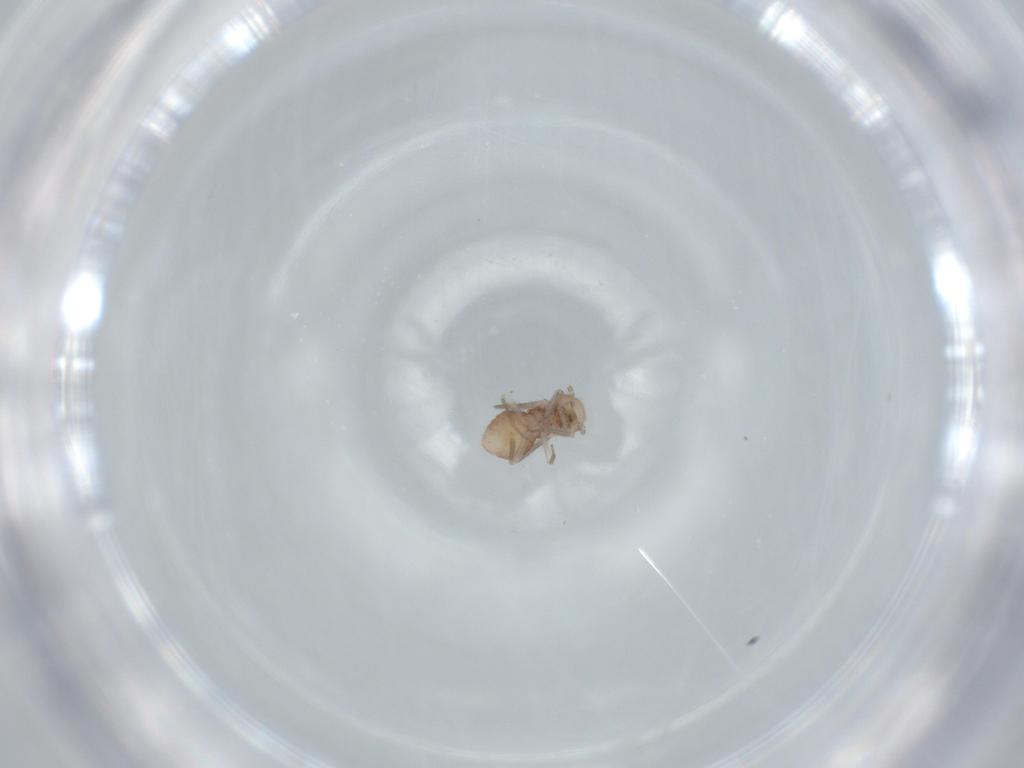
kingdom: Animalia
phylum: Arthropoda
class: Insecta
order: Psocodea
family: Ectopsocidae
